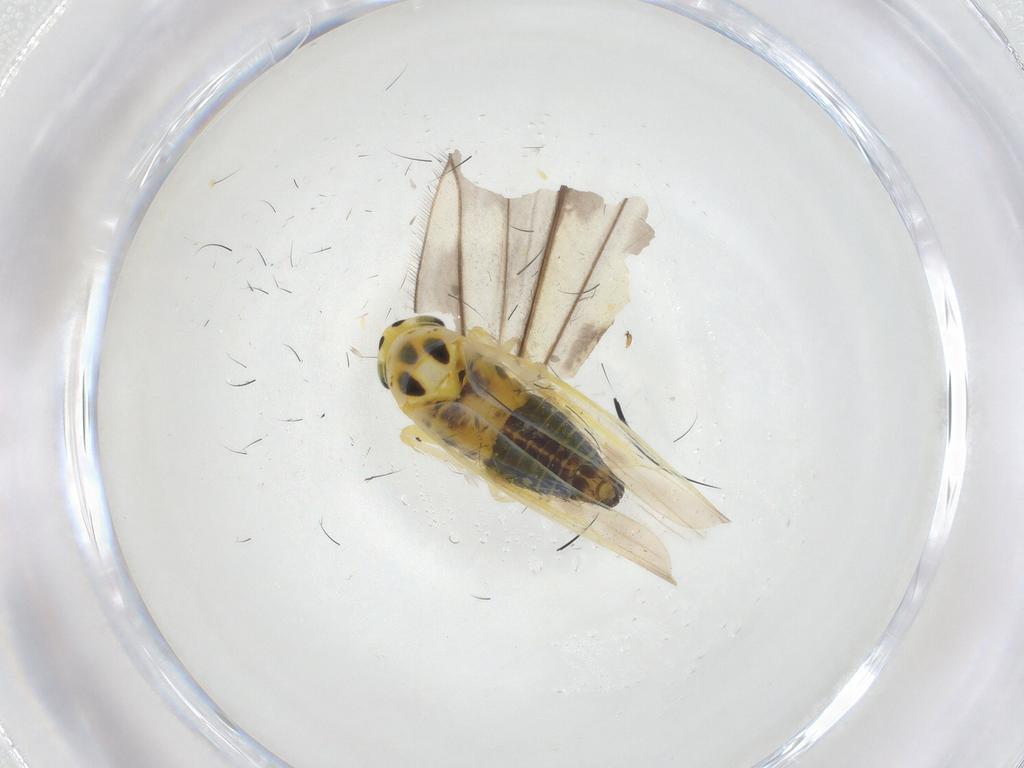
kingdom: Animalia
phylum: Arthropoda
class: Insecta
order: Hemiptera
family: Cicadellidae
